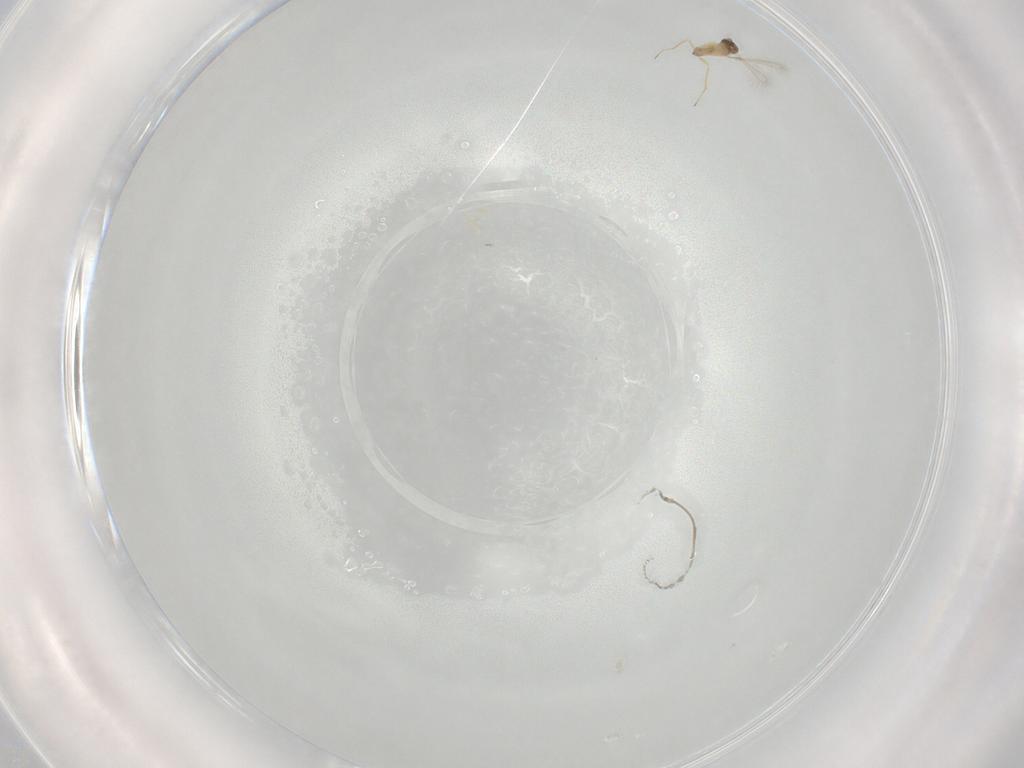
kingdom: Animalia
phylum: Arthropoda
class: Insecta
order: Hymenoptera
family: Mymaridae
